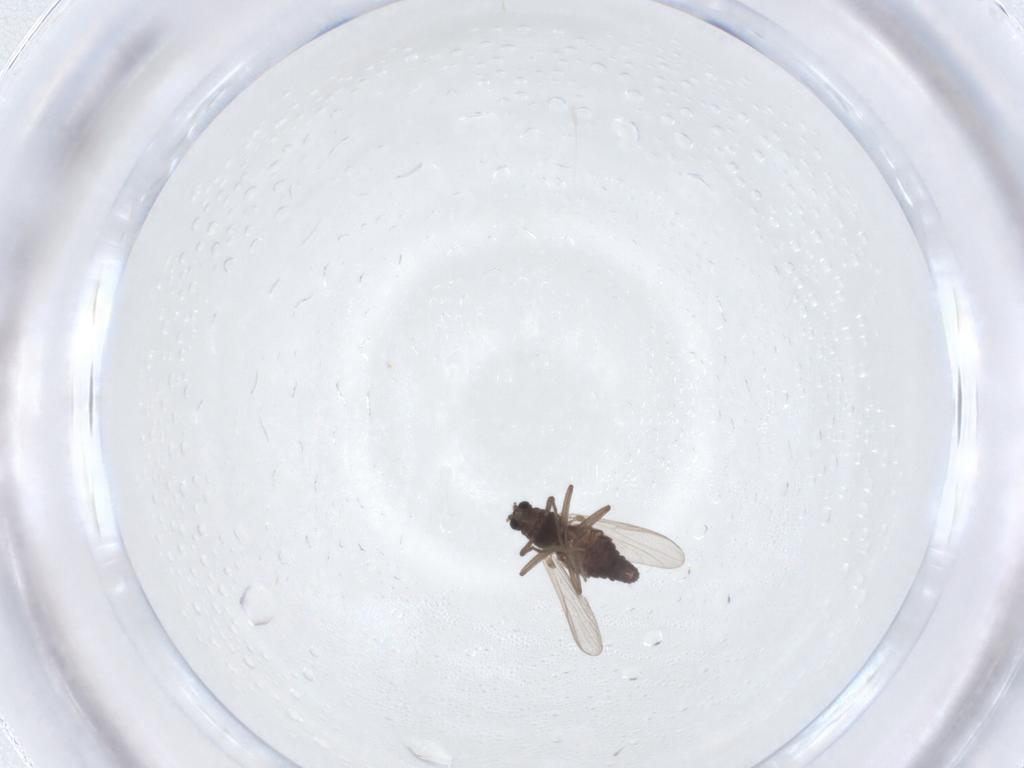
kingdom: Animalia
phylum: Arthropoda
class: Insecta
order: Diptera
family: Chironomidae
